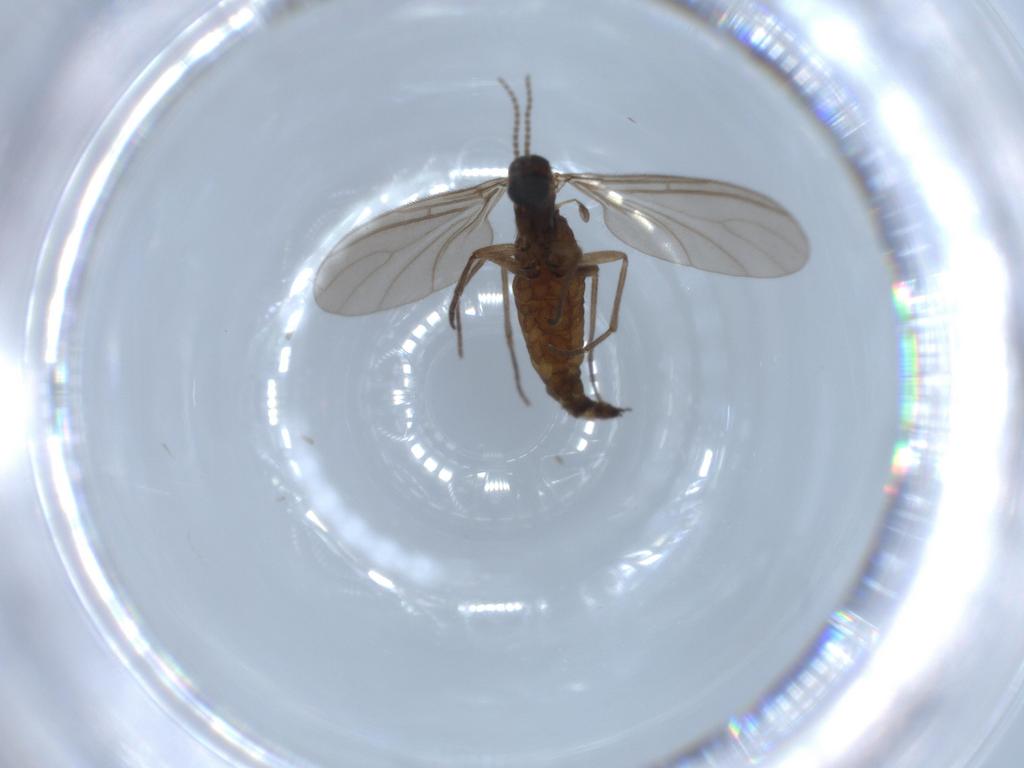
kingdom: Animalia
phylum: Arthropoda
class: Insecta
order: Diptera
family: Sciaridae
